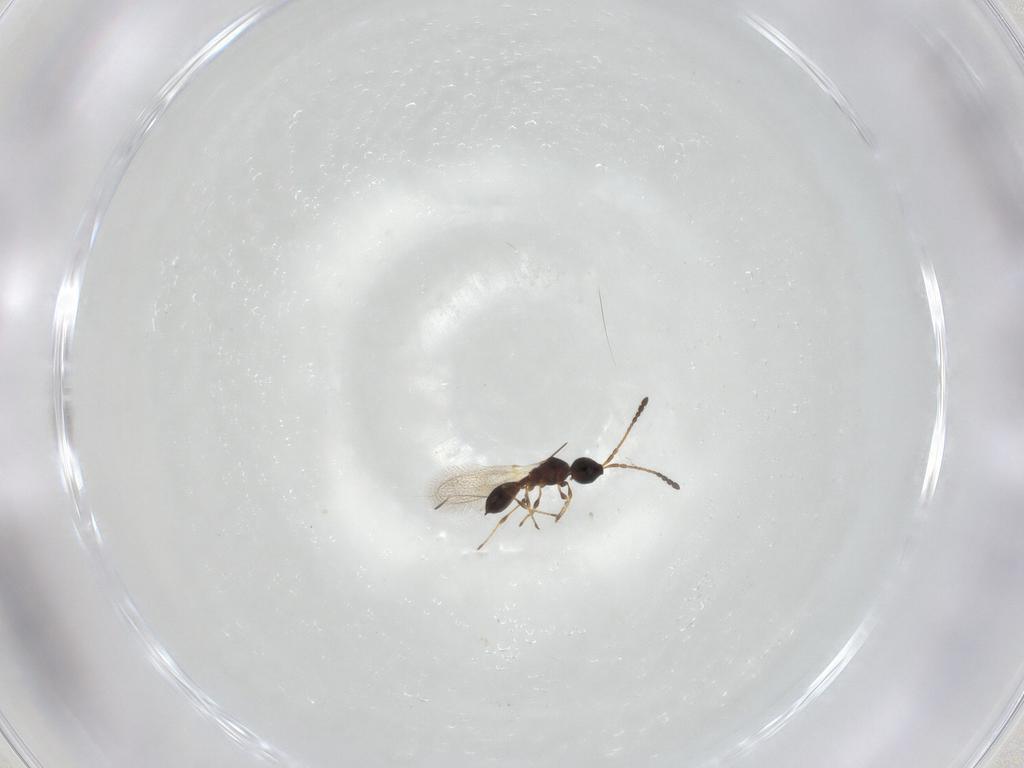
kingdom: Animalia
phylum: Arthropoda
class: Insecta
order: Hymenoptera
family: Diapriidae
